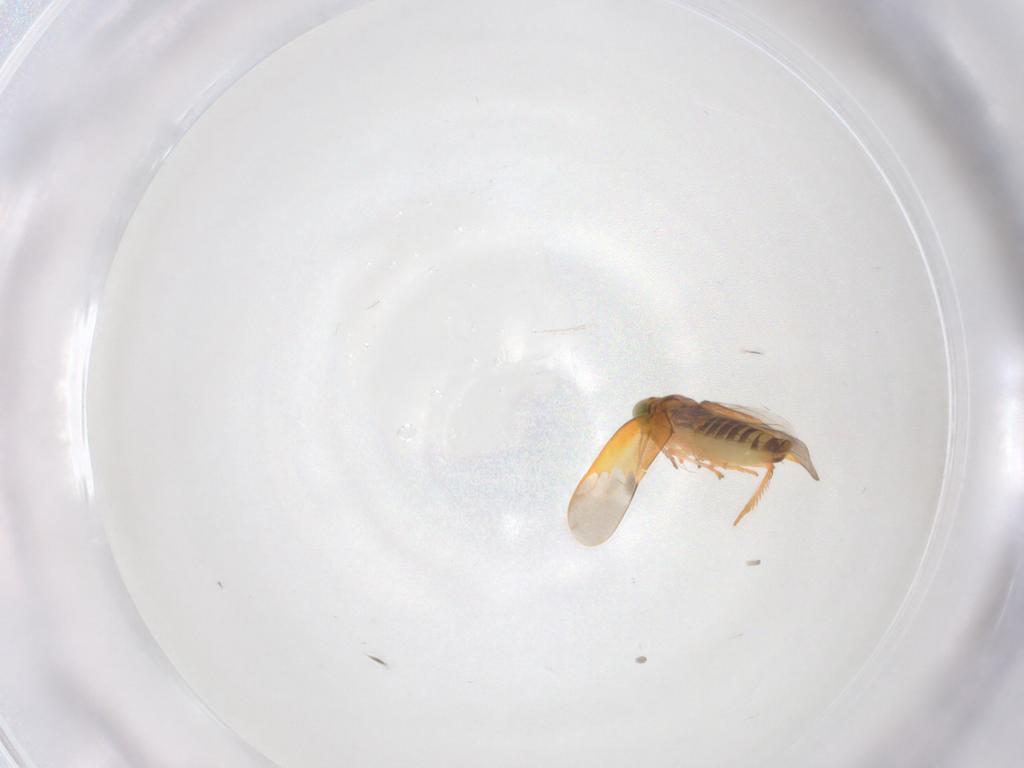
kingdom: Animalia
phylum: Arthropoda
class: Insecta
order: Hemiptera
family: Cicadellidae
